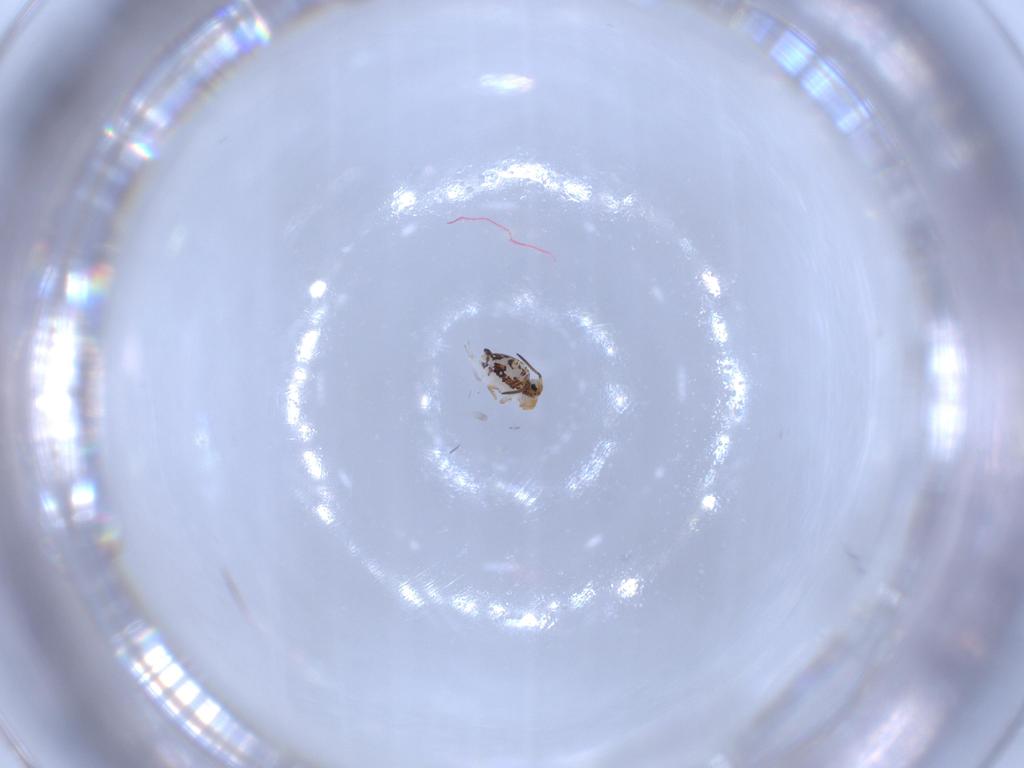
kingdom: Animalia
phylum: Arthropoda
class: Collembola
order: Symphypleona
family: Katiannidae
